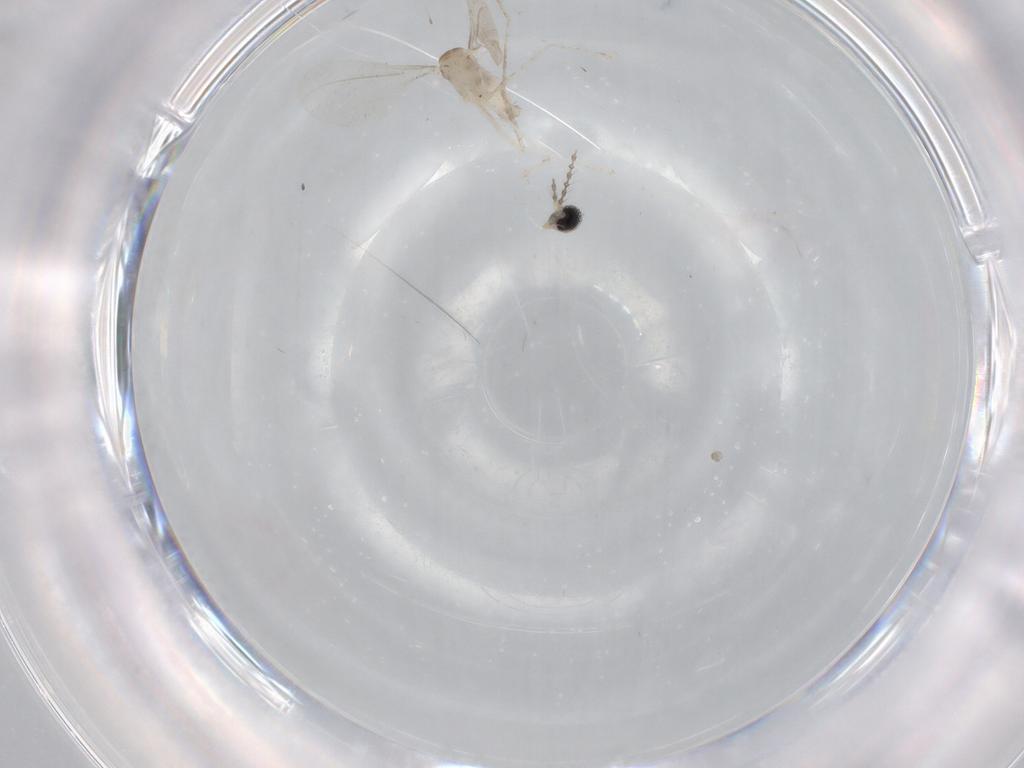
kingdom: Animalia
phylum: Arthropoda
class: Insecta
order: Diptera
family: Cecidomyiidae
